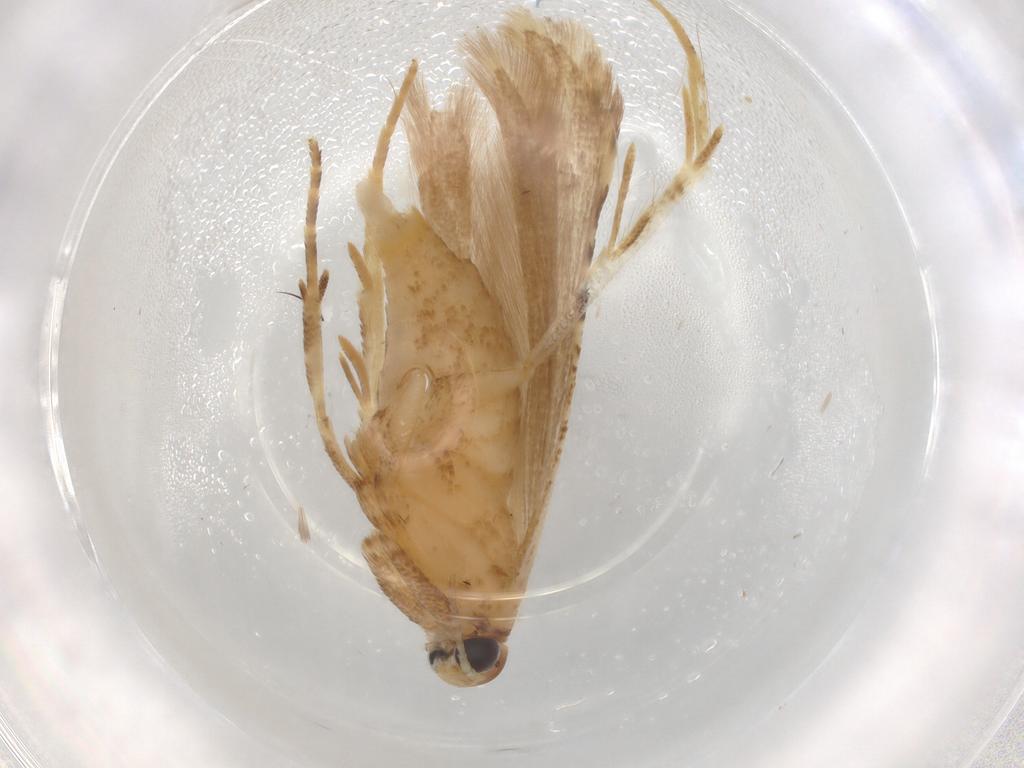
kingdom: Animalia
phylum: Arthropoda
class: Insecta
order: Lepidoptera
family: Gelechiidae
